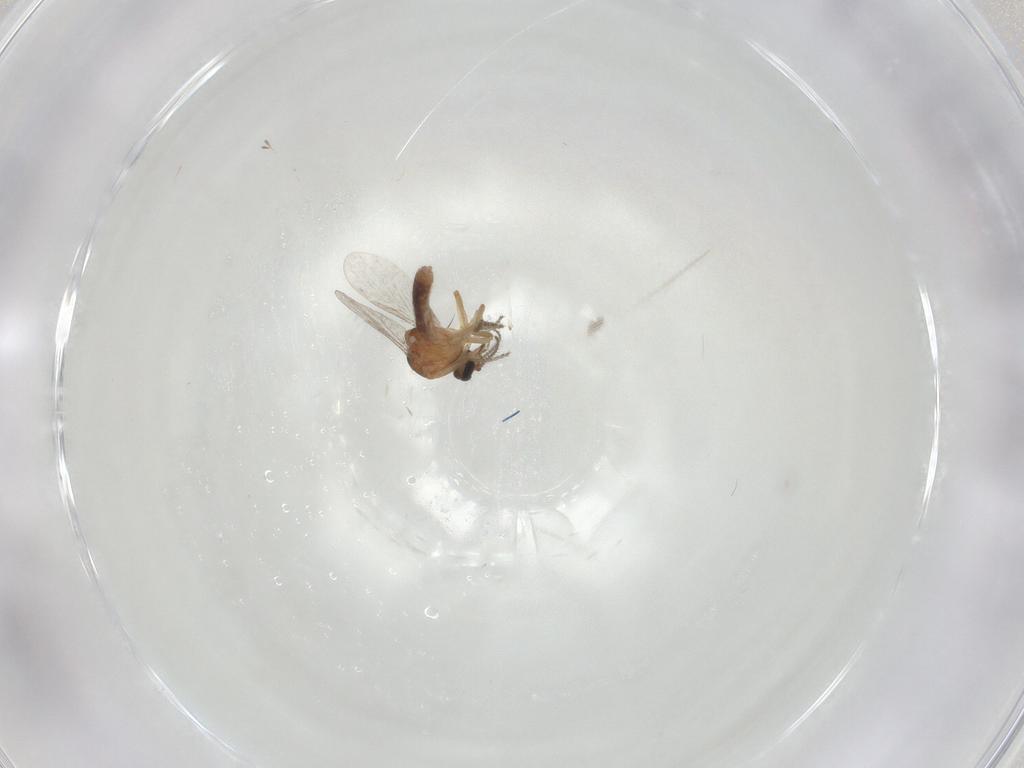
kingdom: Animalia
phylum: Arthropoda
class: Insecta
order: Diptera
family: Ceratopogonidae
